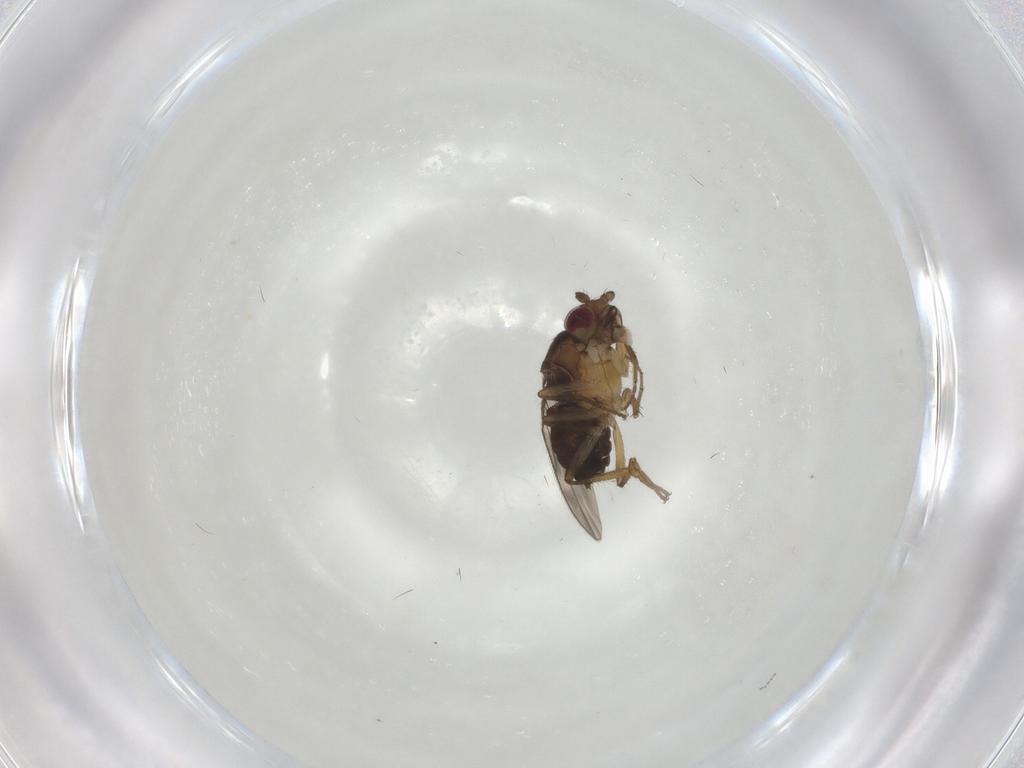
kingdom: Animalia
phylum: Arthropoda
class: Insecta
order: Diptera
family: Sphaeroceridae
